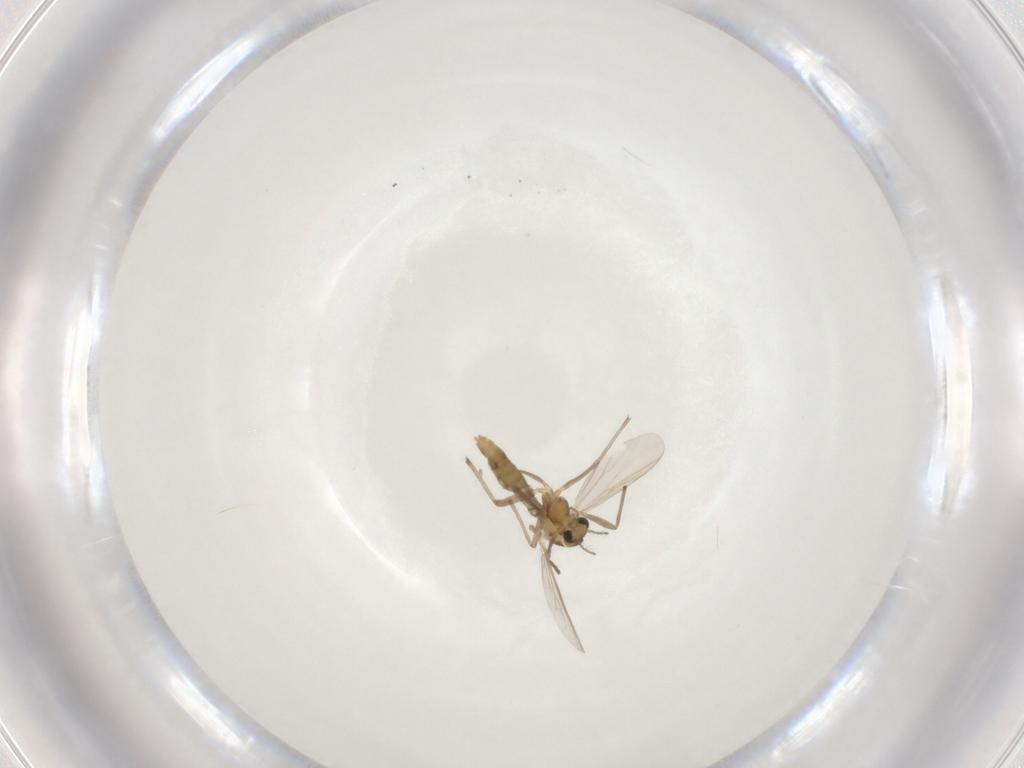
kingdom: Animalia
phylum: Arthropoda
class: Insecta
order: Diptera
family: Chironomidae
